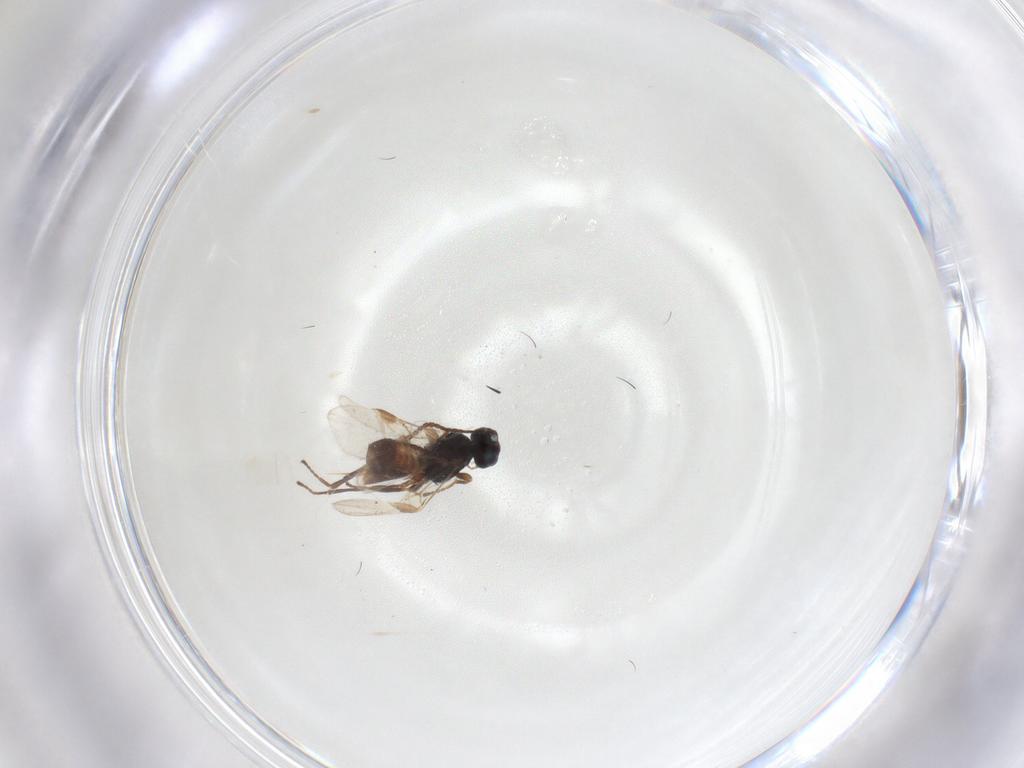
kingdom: Animalia
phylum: Arthropoda
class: Insecta
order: Hymenoptera
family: Braconidae
